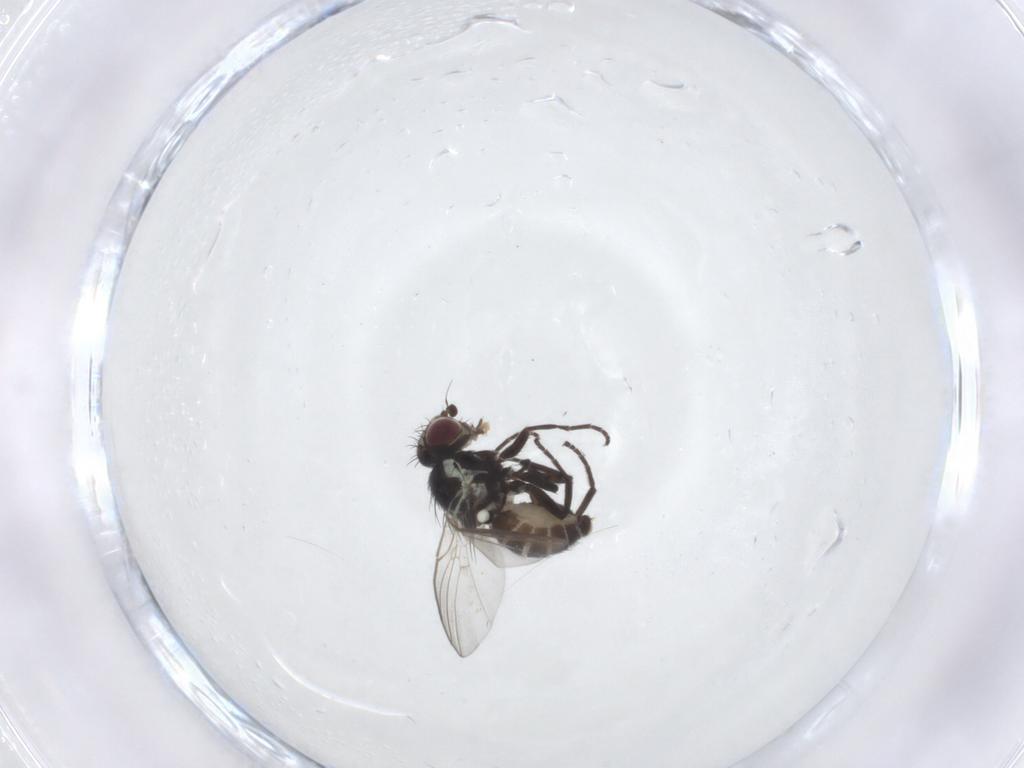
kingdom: Animalia
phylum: Arthropoda
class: Insecta
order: Diptera
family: Agromyzidae
